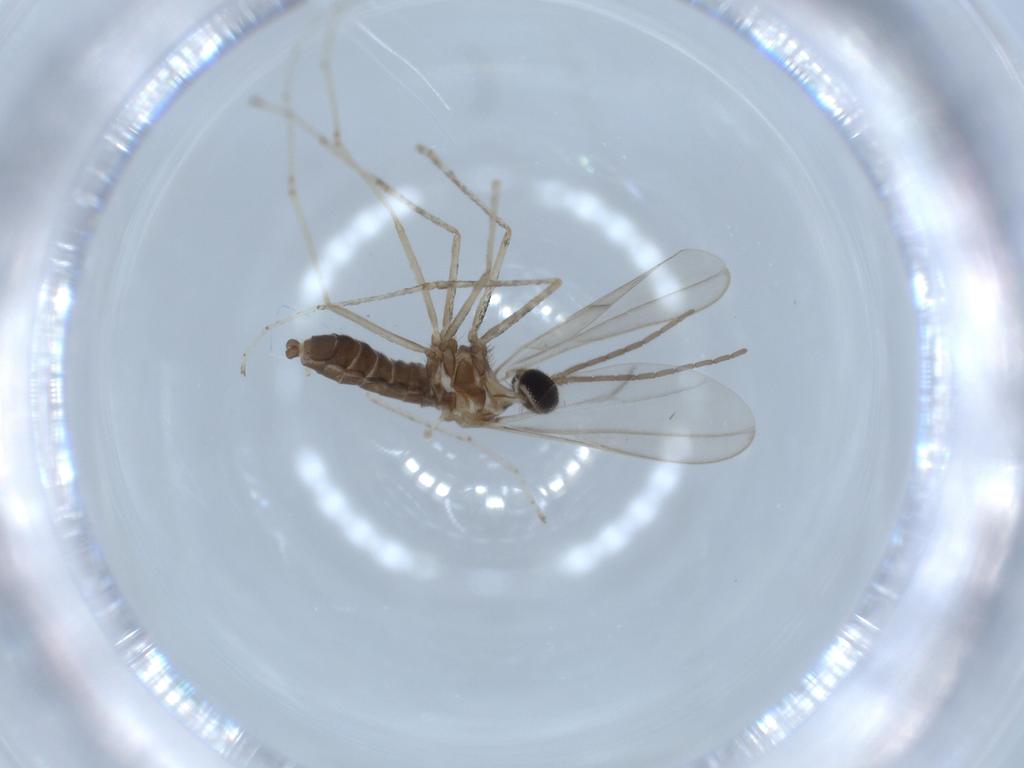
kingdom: Animalia
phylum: Arthropoda
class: Insecta
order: Diptera
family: Cecidomyiidae
